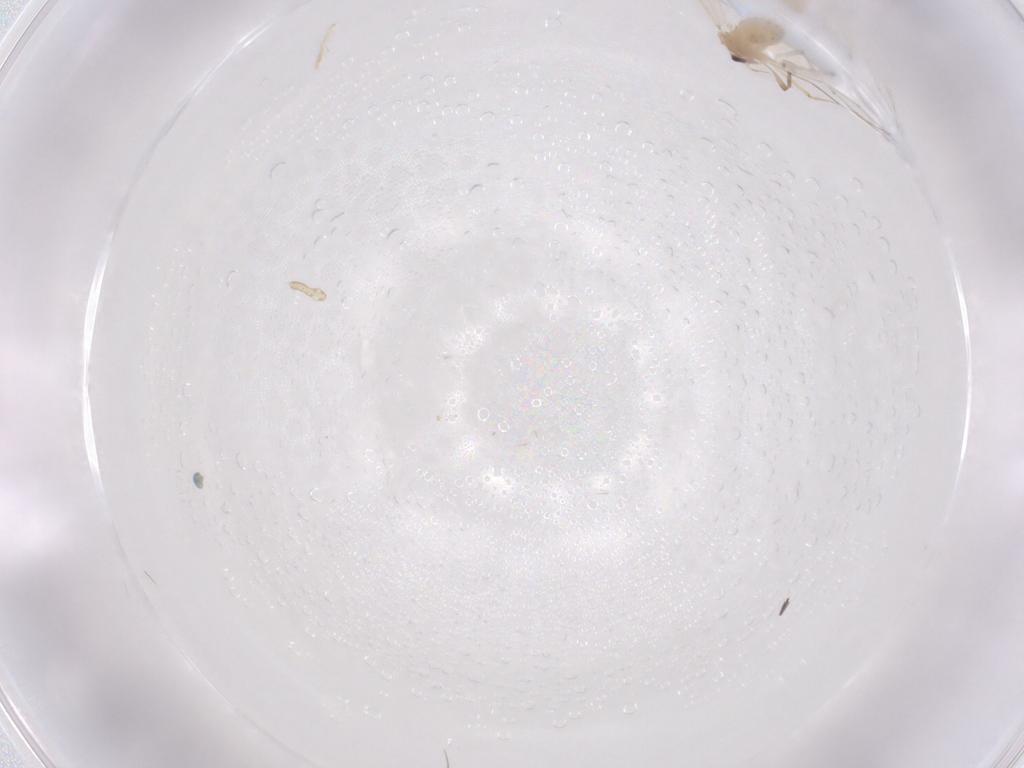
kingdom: Animalia
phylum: Arthropoda
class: Insecta
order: Diptera
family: Chironomidae
